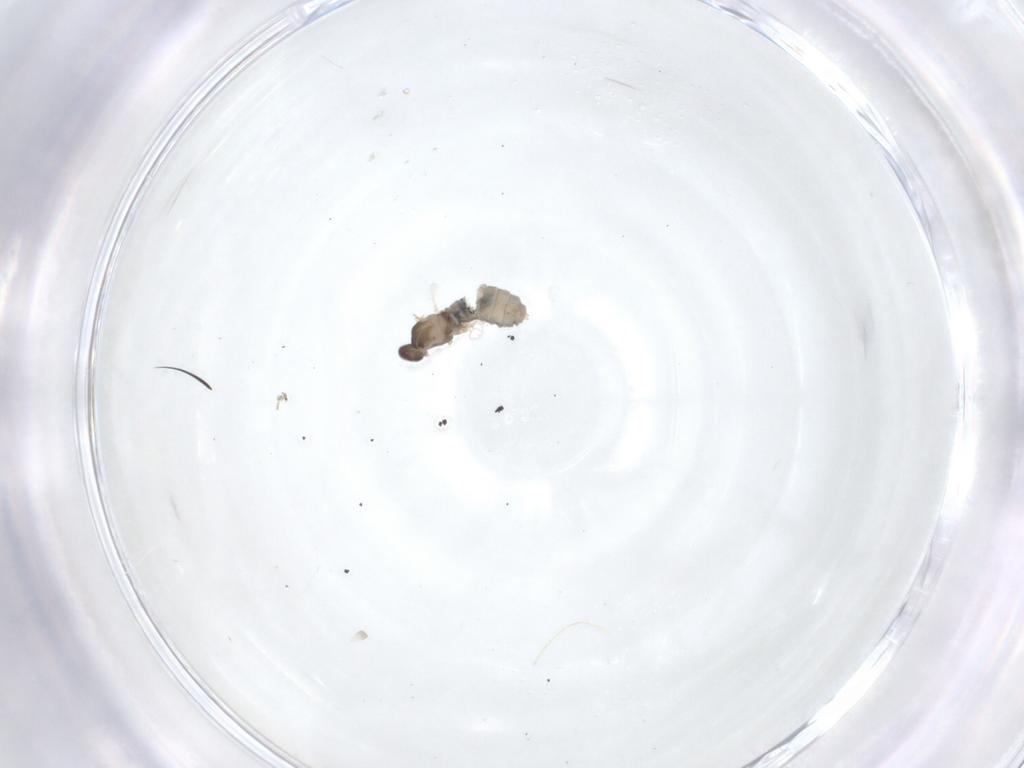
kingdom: Animalia
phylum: Arthropoda
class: Insecta
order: Diptera
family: Cecidomyiidae
